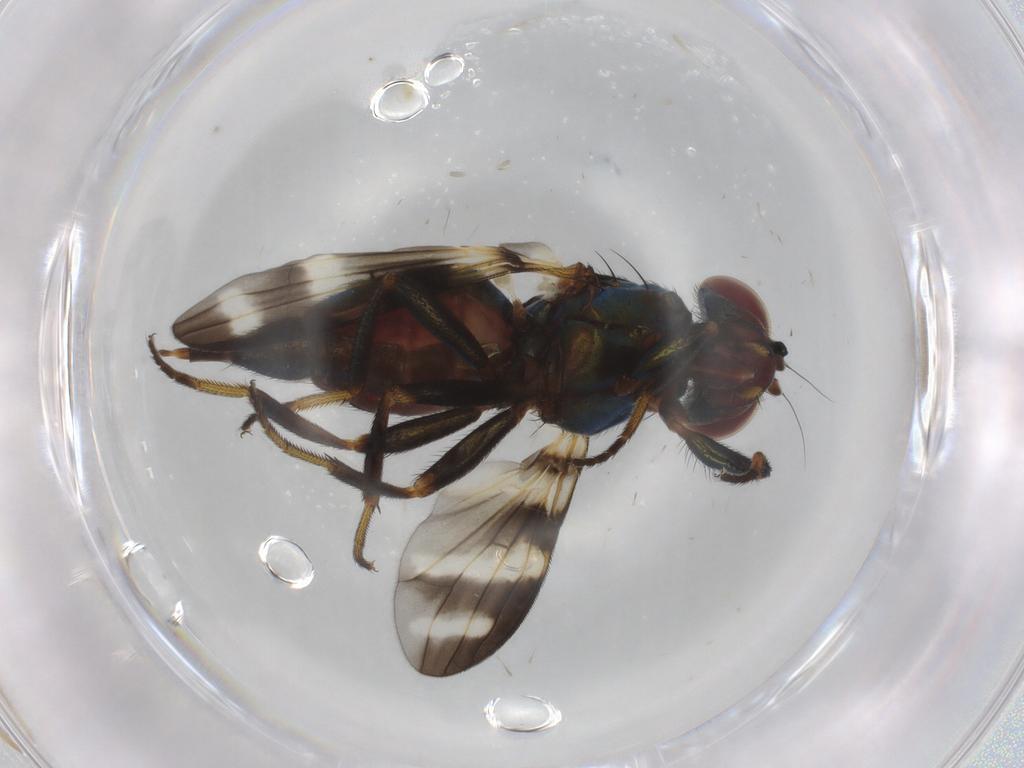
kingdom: Animalia
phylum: Arthropoda
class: Insecta
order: Diptera
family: Ulidiidae
